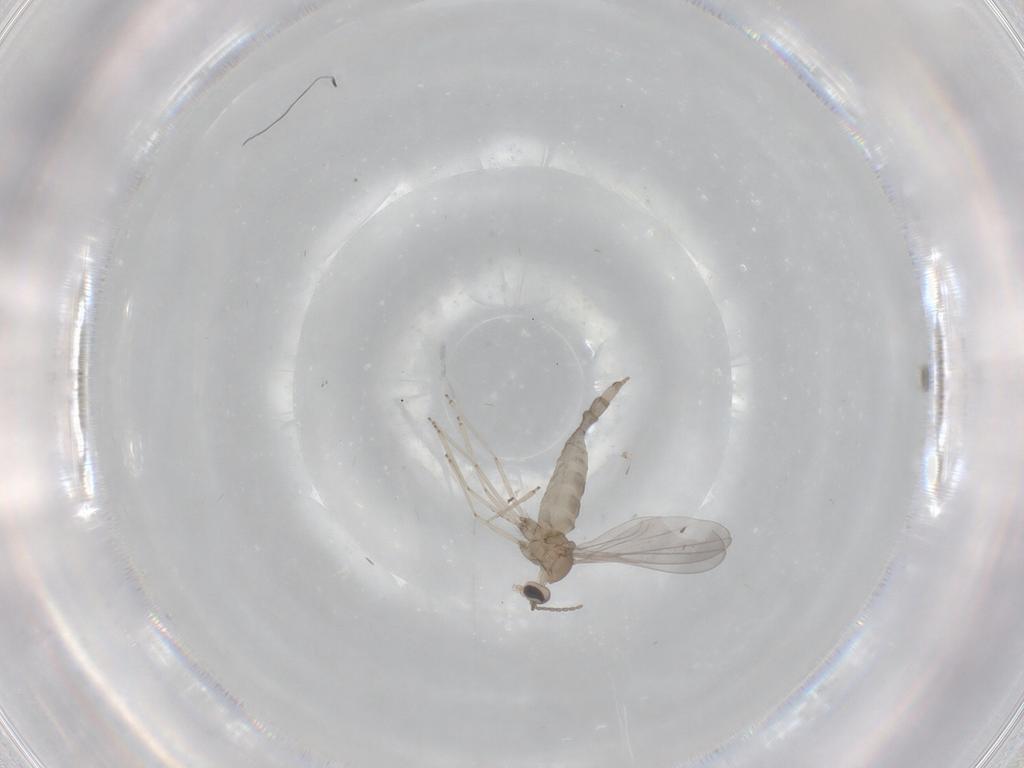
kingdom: Animalia
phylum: Arthropoda
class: Insecta
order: Diptera
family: Cecidomyiidae
